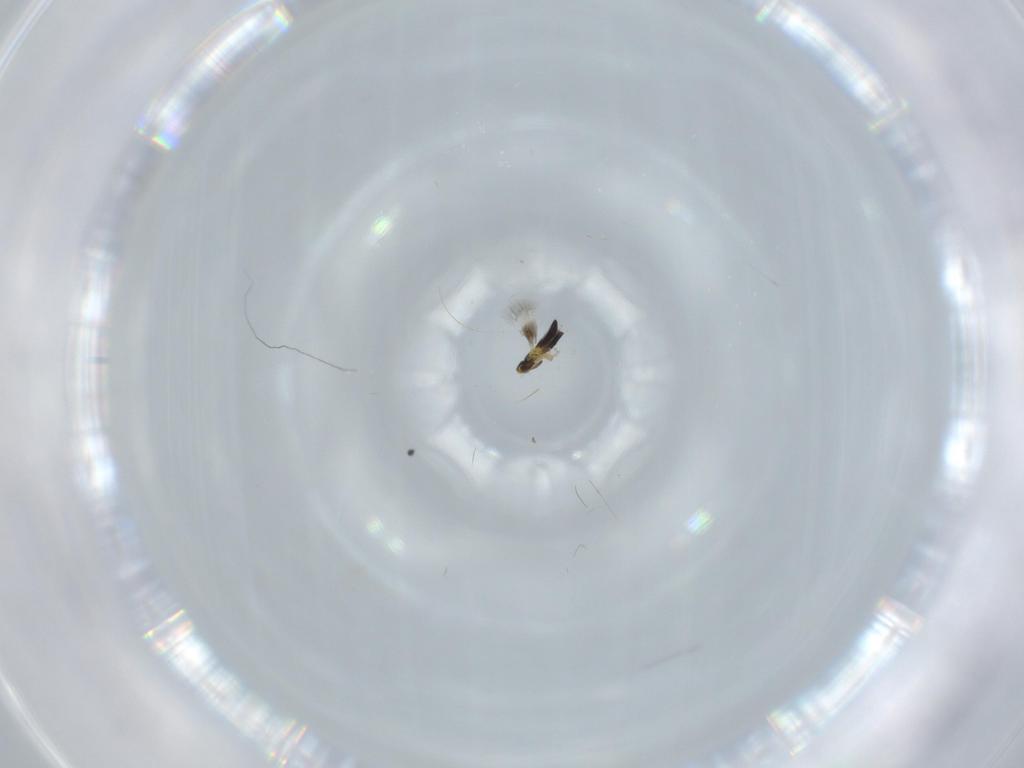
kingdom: Animalia
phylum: Arthropoda
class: Insecta
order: Hymenoptera
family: Signiphoridae
